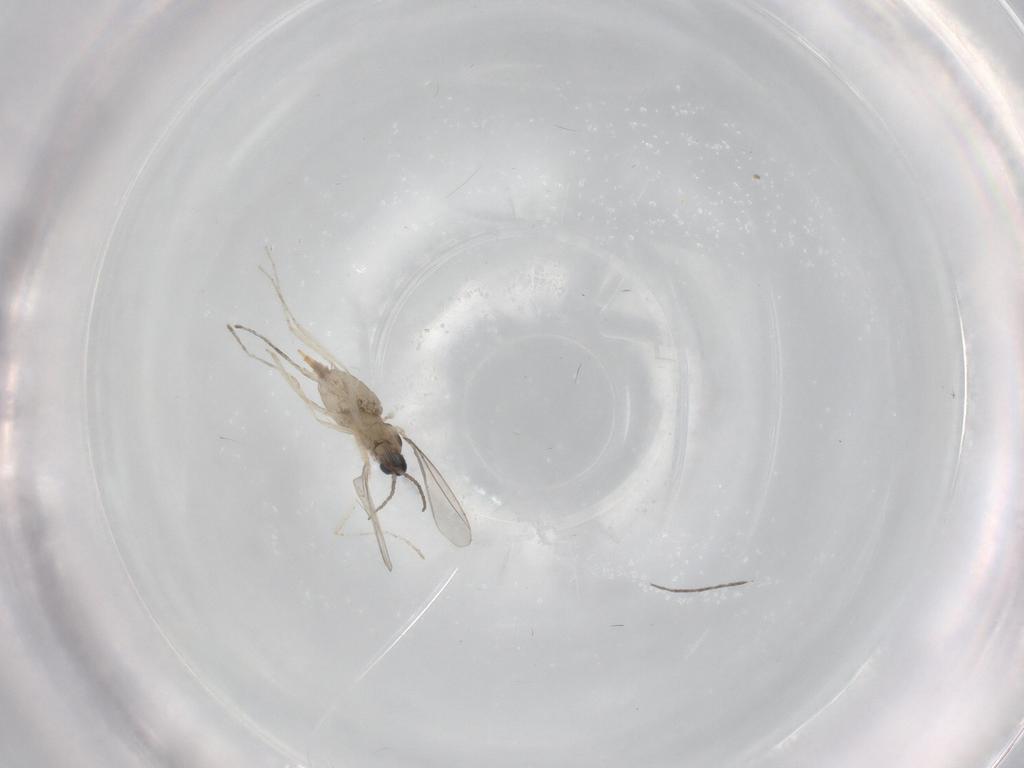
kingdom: Animalia
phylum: Arthropoda
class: Insecta
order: Diptera
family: Cecidomyiidae
